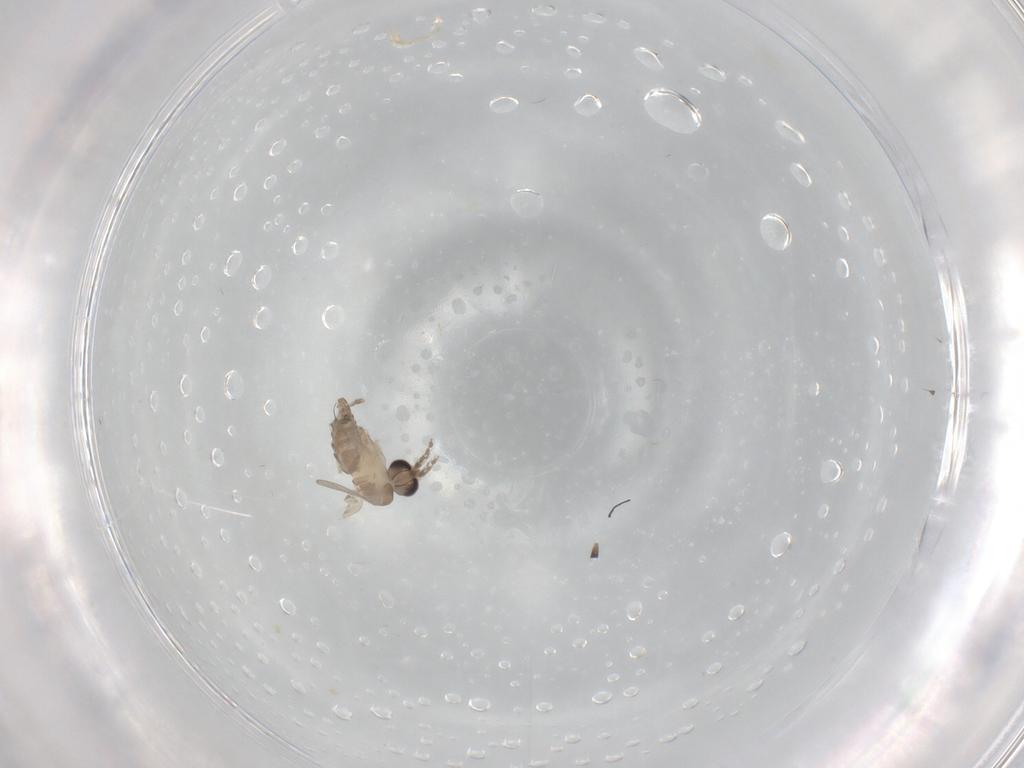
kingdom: Animalia
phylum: Arthropoda
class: Insecta
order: Diptera
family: Psychodidae
